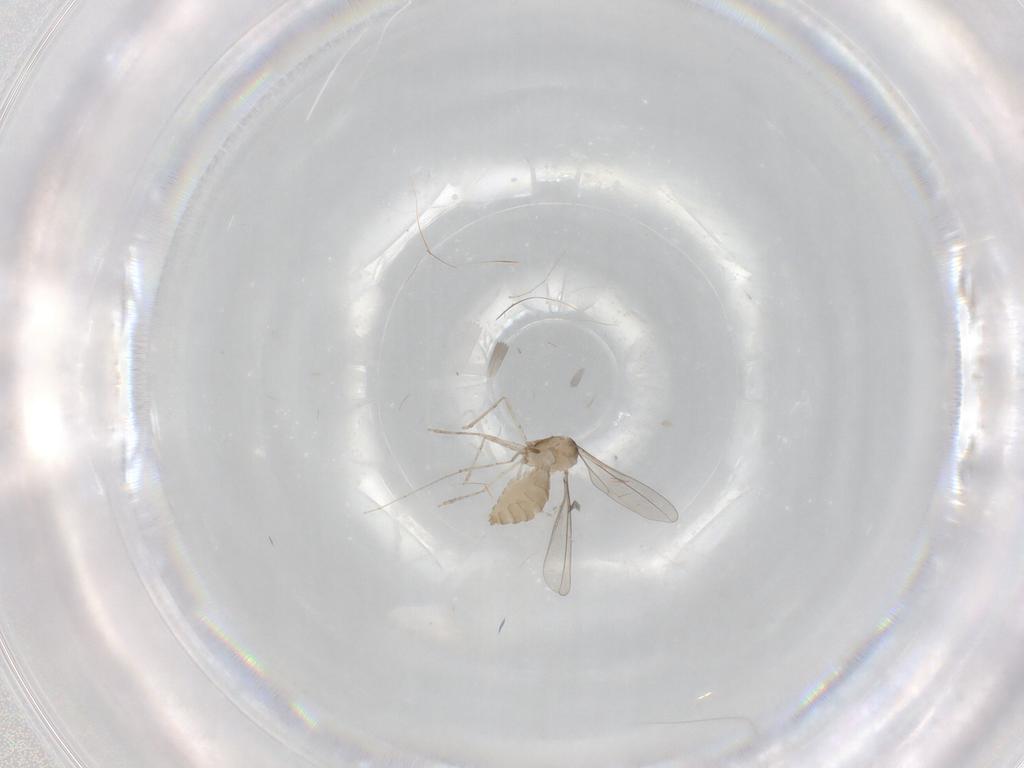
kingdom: Animalia
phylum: Arthropoda
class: Insecta
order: Diptera
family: Cecidomyiidae
